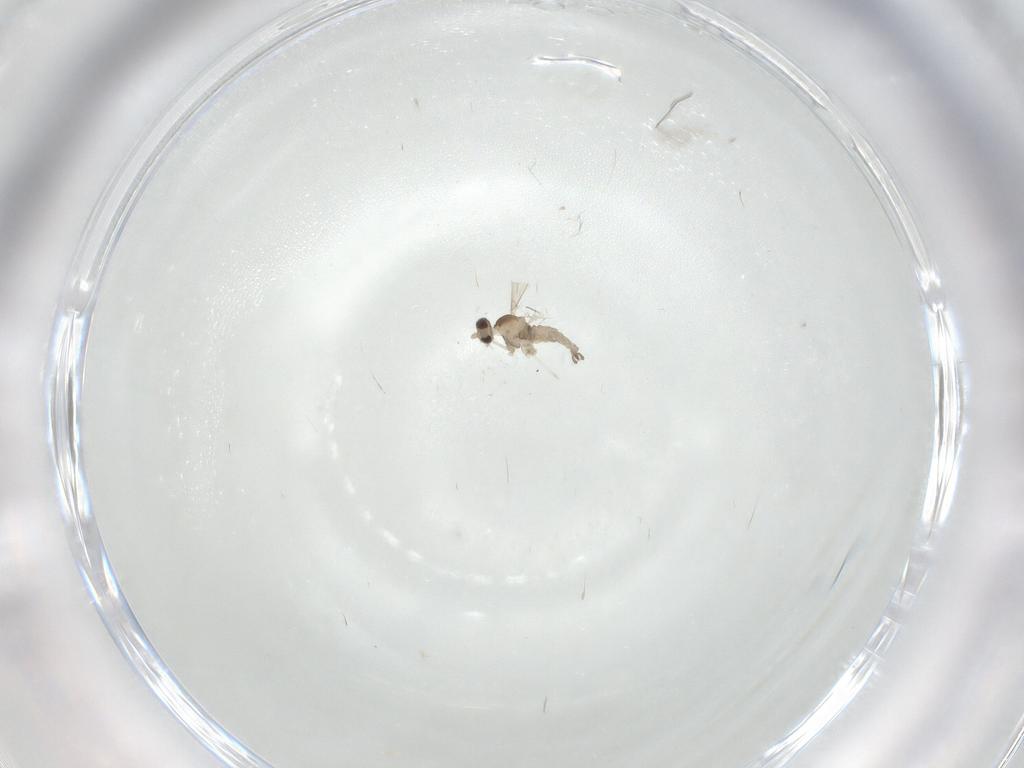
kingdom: Animalia
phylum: Arthropoda
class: Insecta
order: Diptera
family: Cecidomyiidae
